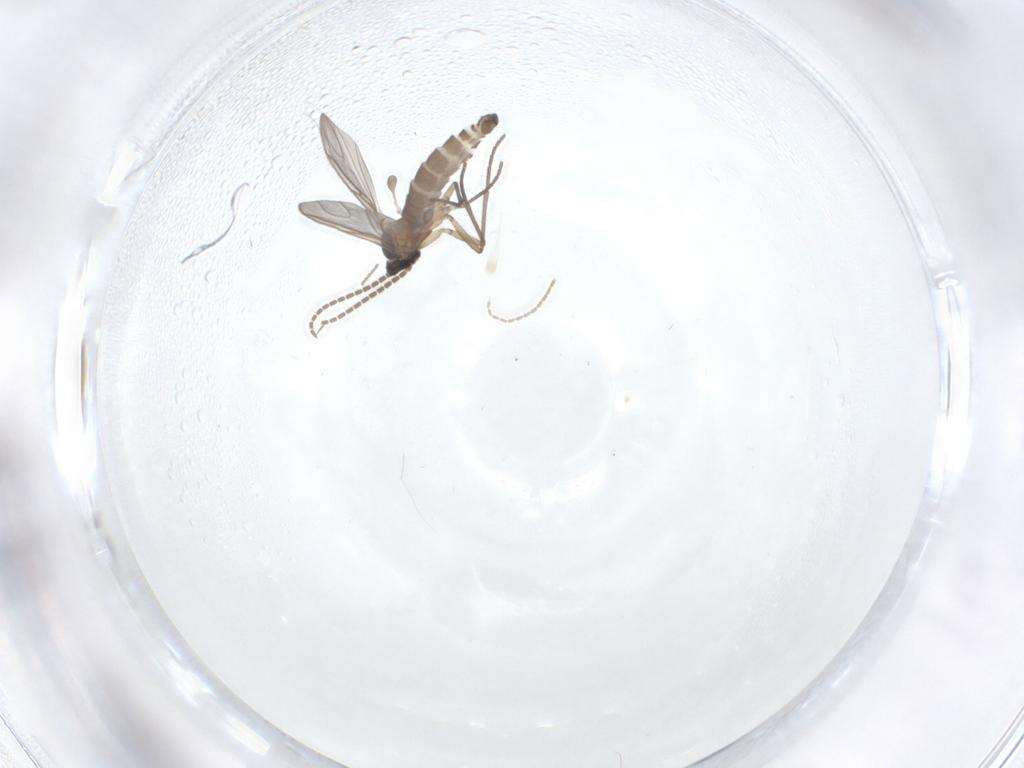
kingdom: Animalia
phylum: Arthropoda
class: Insecta
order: Diptera
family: Sciaridae
